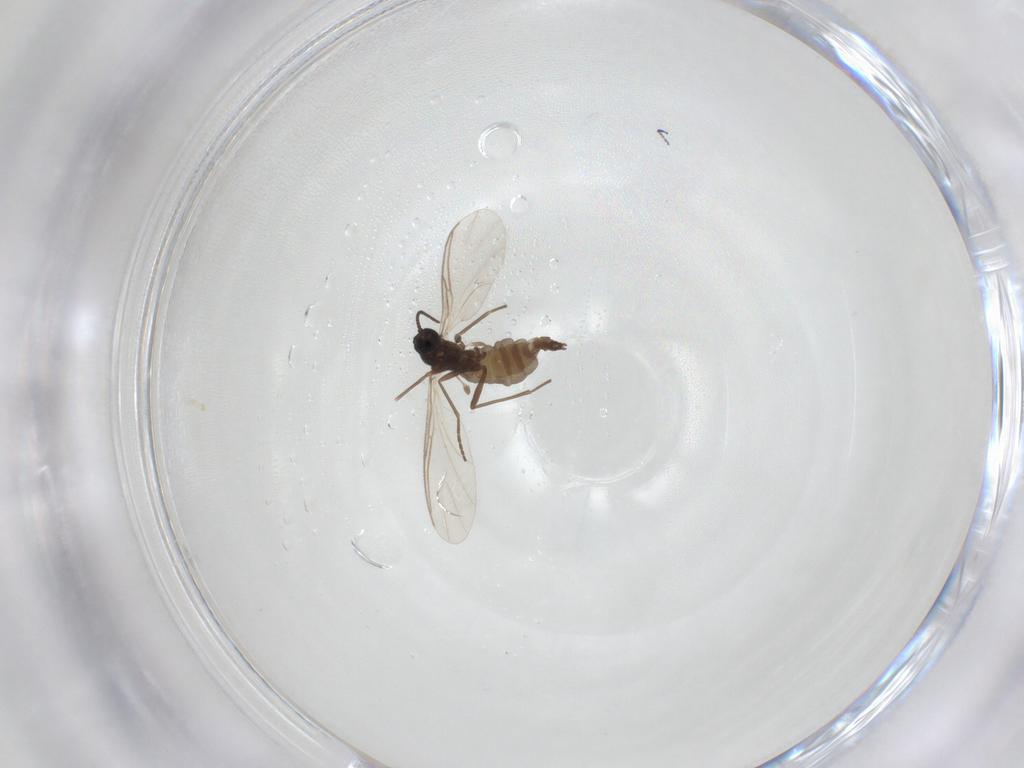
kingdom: Animalia
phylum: Arthropoda
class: Insecta
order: Diptera
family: Sciaridae
